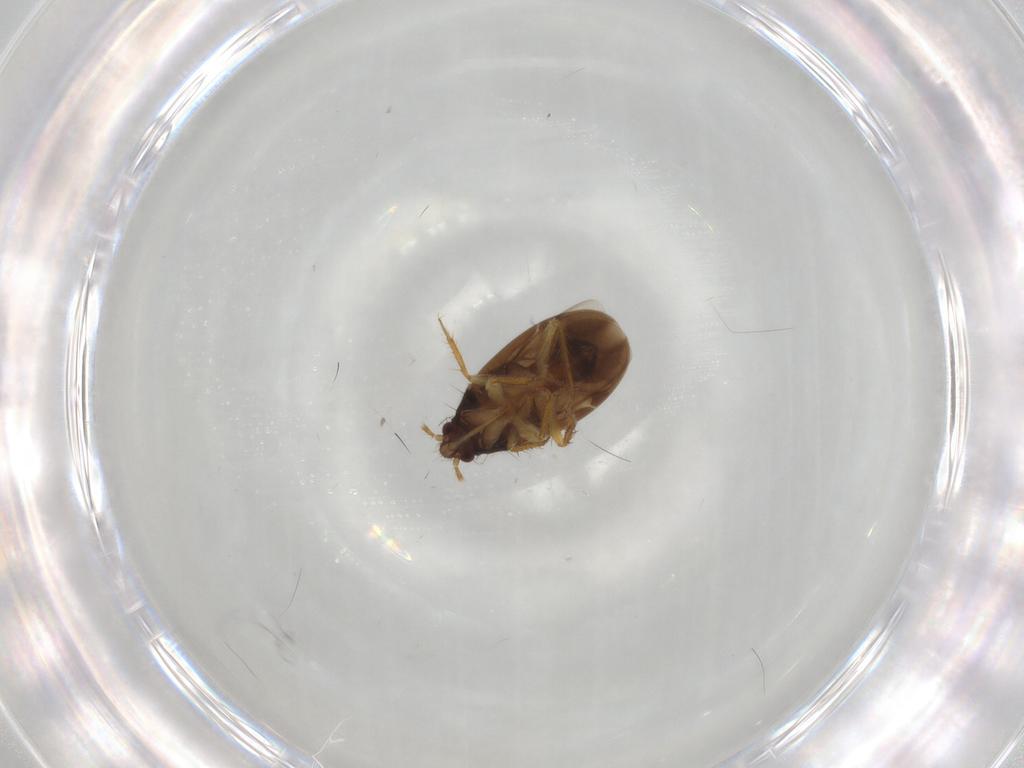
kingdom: Animalia
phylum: Arthropoda
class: Insecta
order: Hemiptera
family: Ceratocombidae
